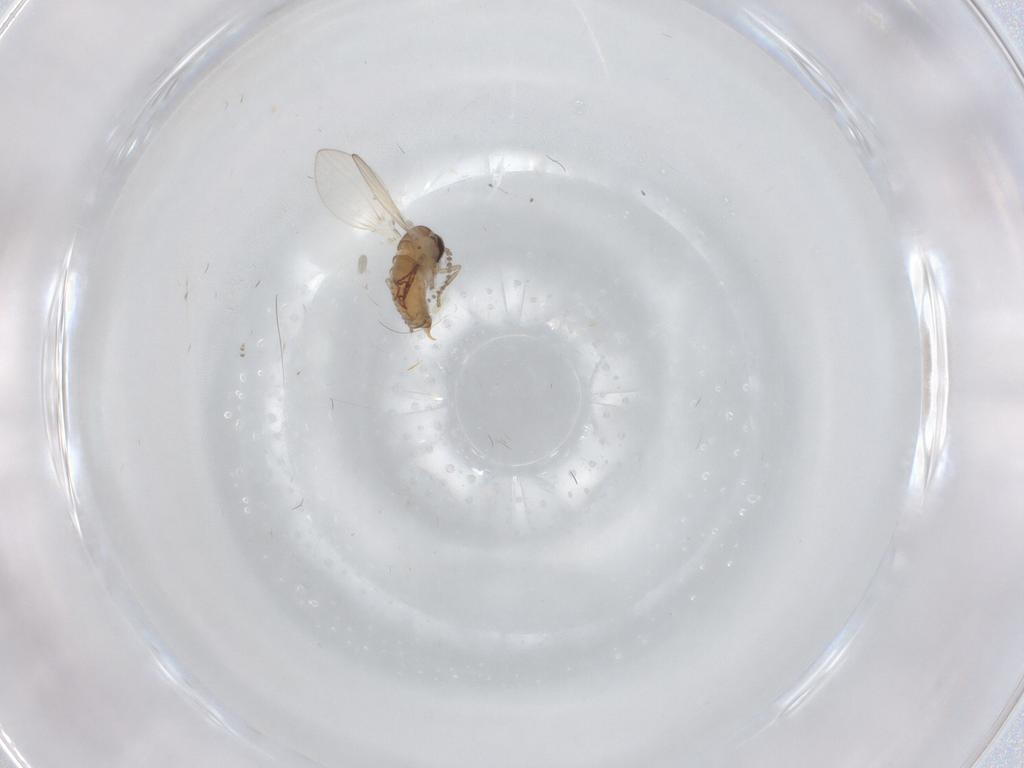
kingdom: Animalia
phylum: Arthropoda
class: Insecta
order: Diptera
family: Psychodidae
